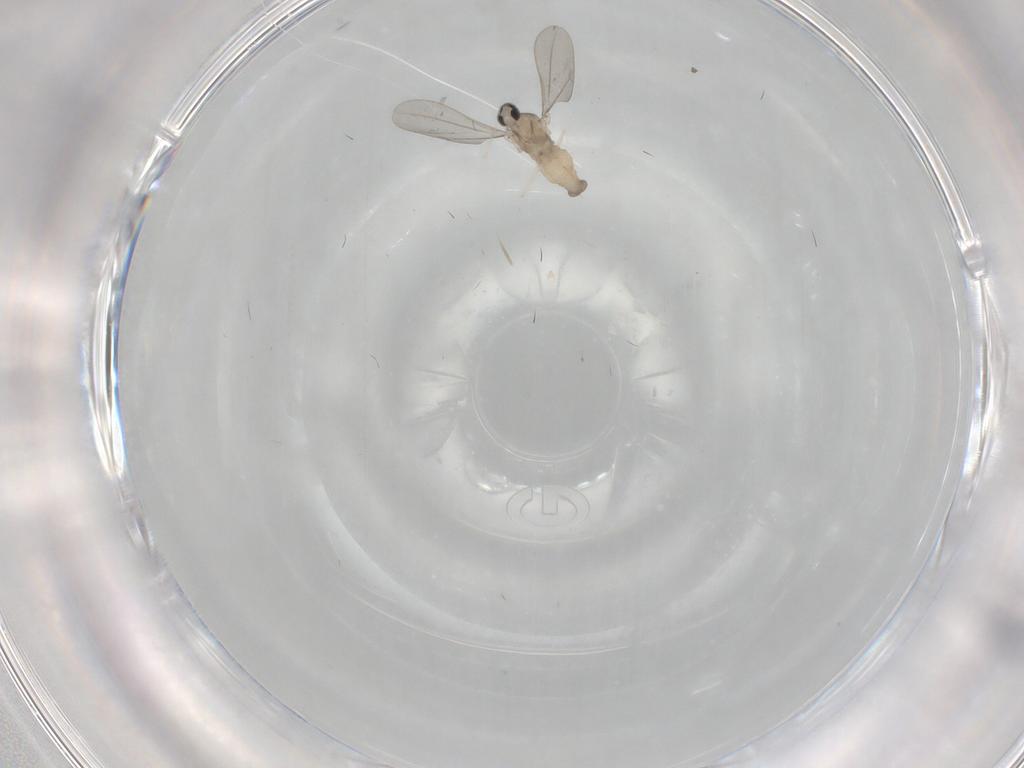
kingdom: Animalia
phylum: Arthropoda
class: Insecta
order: Diptera
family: Cecidomyiidae
